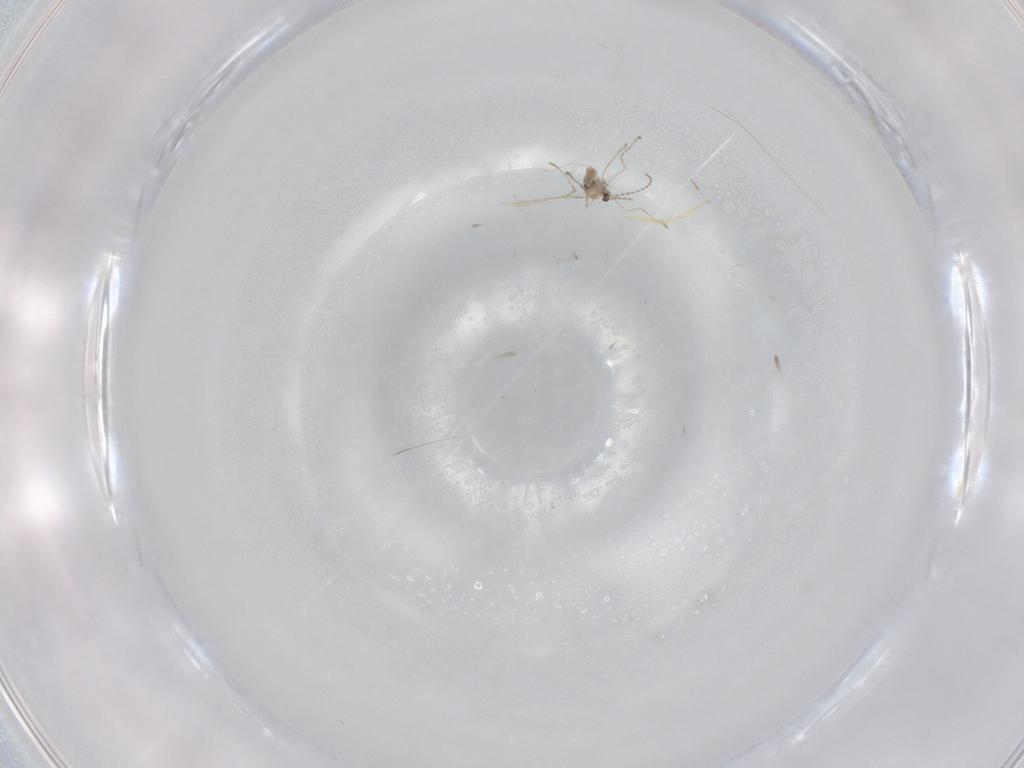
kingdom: Animalia
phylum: Arthropoda
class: Insecta
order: Diptera
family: Cecidomyiidae
